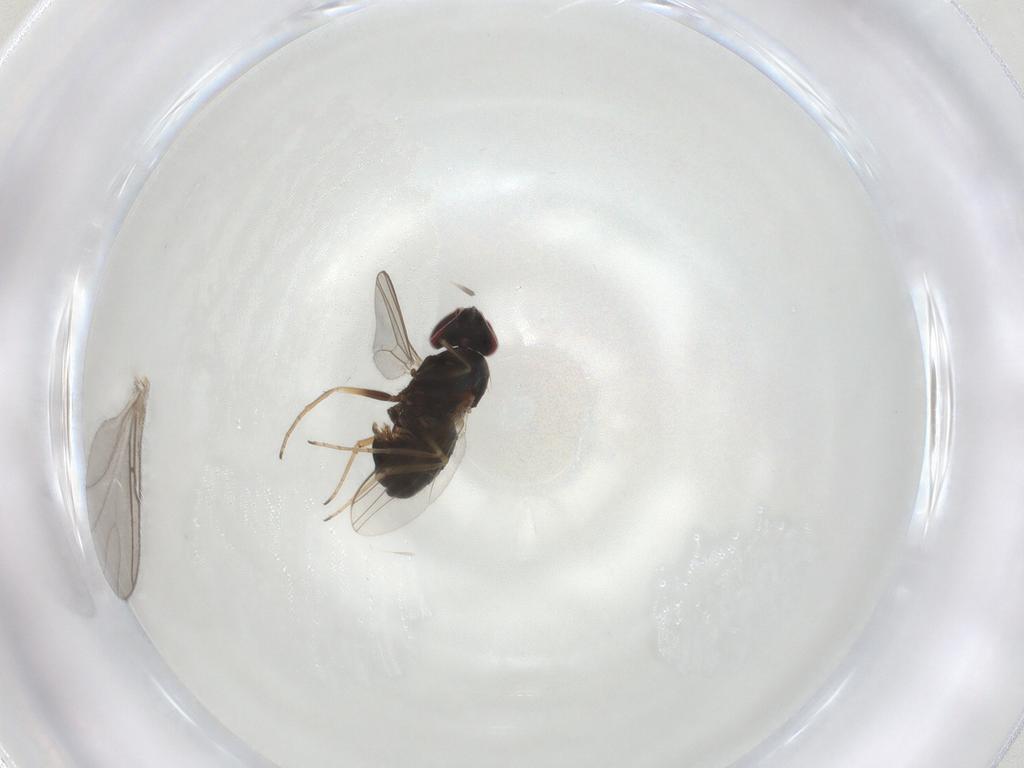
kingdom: Animalia
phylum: Arthropoda
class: Insecta
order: Diptera
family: Dolichopodidae
